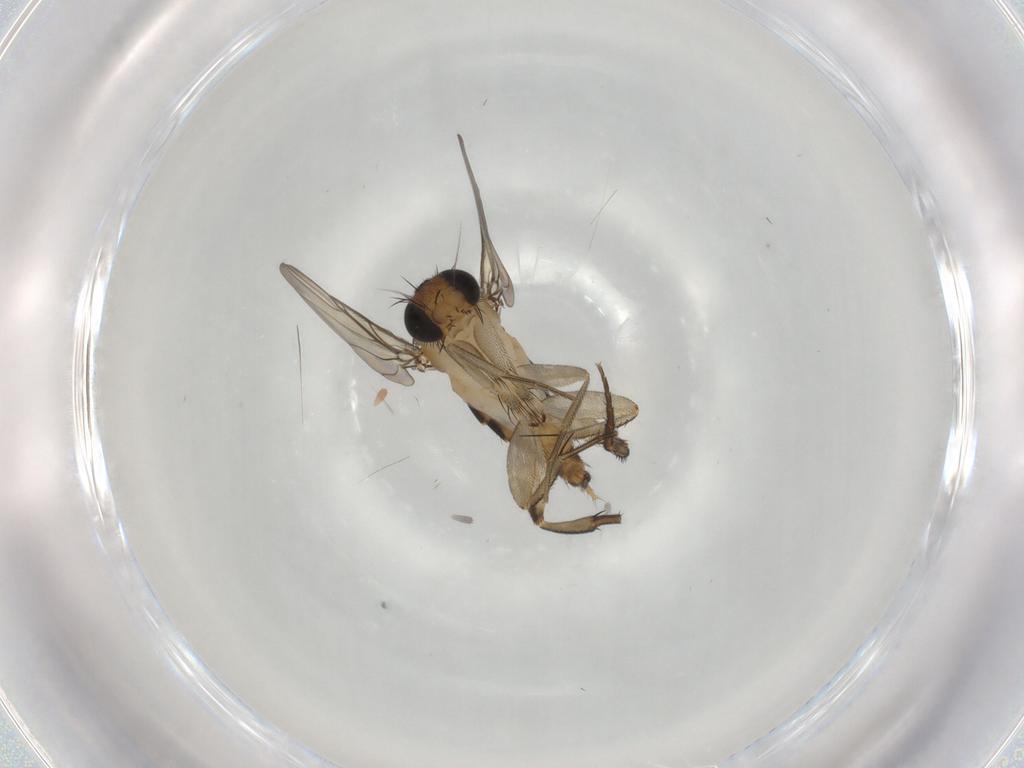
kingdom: Animalia
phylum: Arthropoda
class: Insecta
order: Diptera
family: Phoridae
